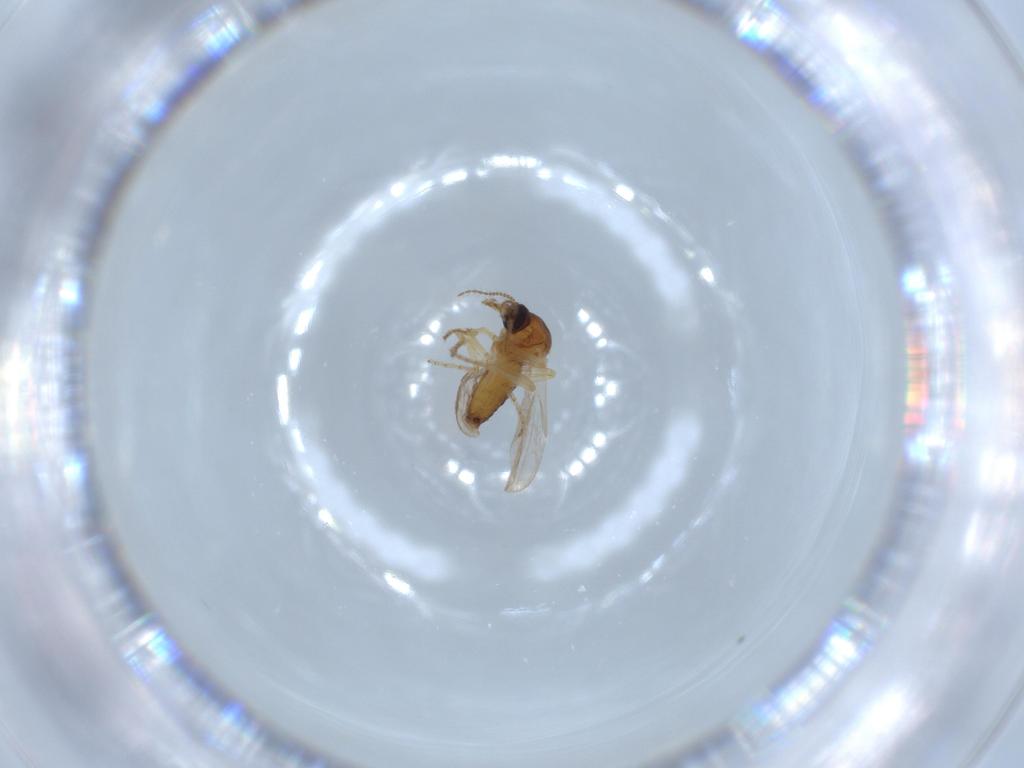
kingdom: Animalia
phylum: Arthropoda
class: Insecta
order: Diptera
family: Ceratopogonidae
